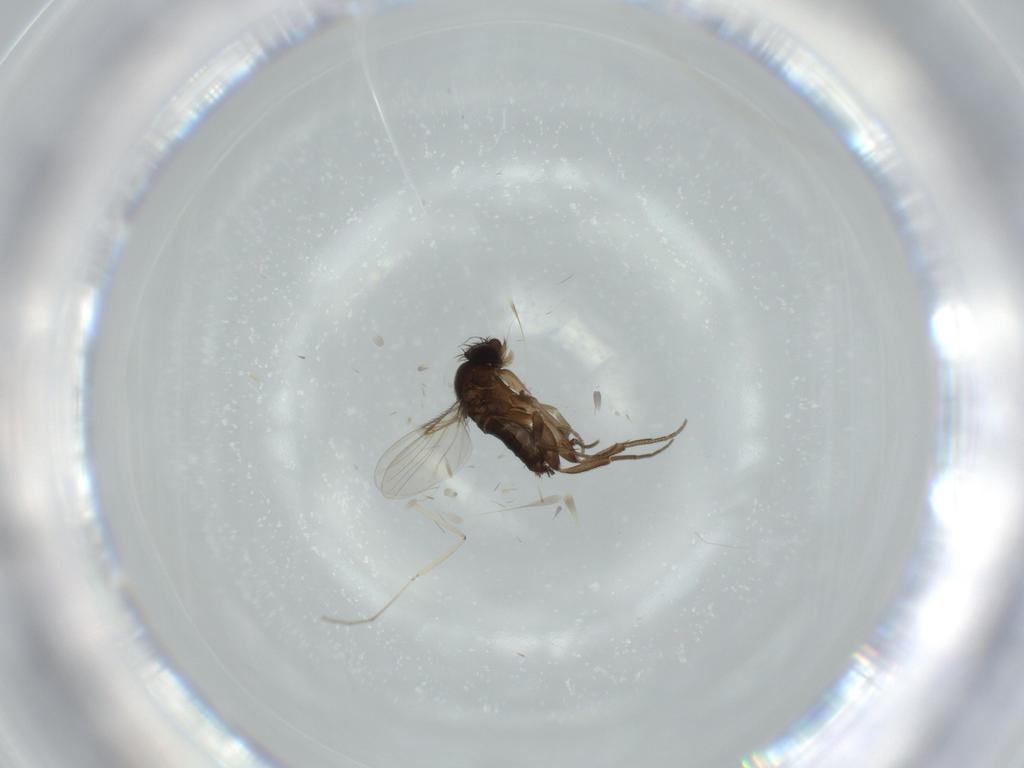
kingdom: Animalia
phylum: Arthropoda
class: Insecta
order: Diptera
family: Phoridae
